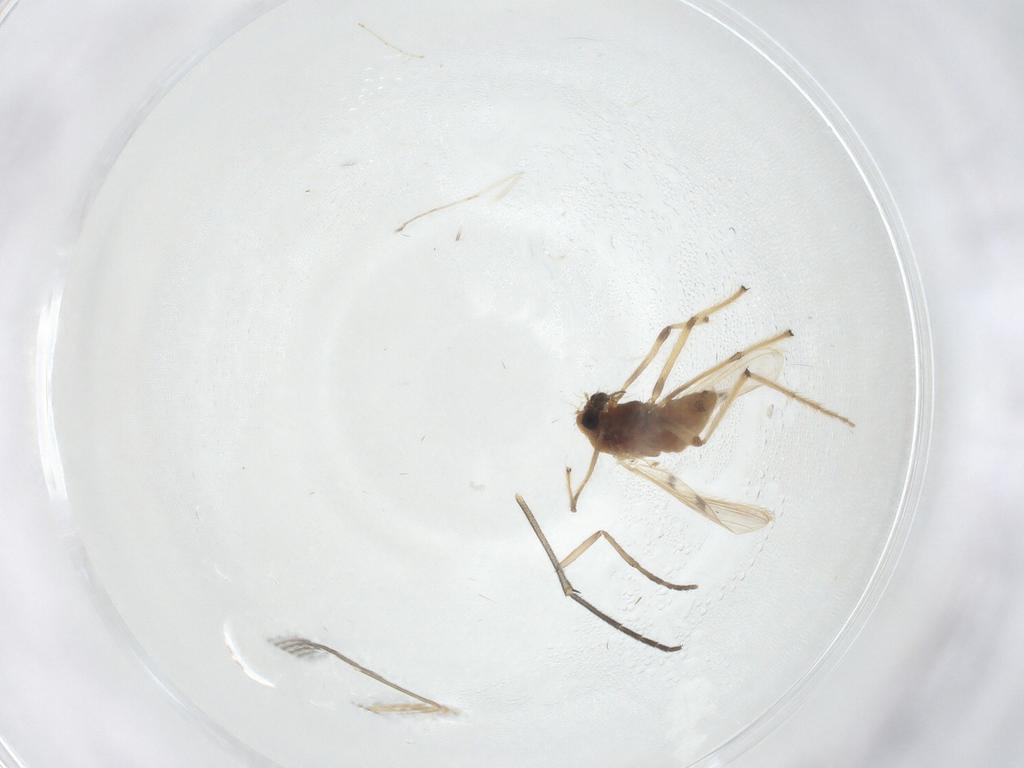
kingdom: Animalia
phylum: Arthropoda
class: Insecta
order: Diptera
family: Chironomidae
